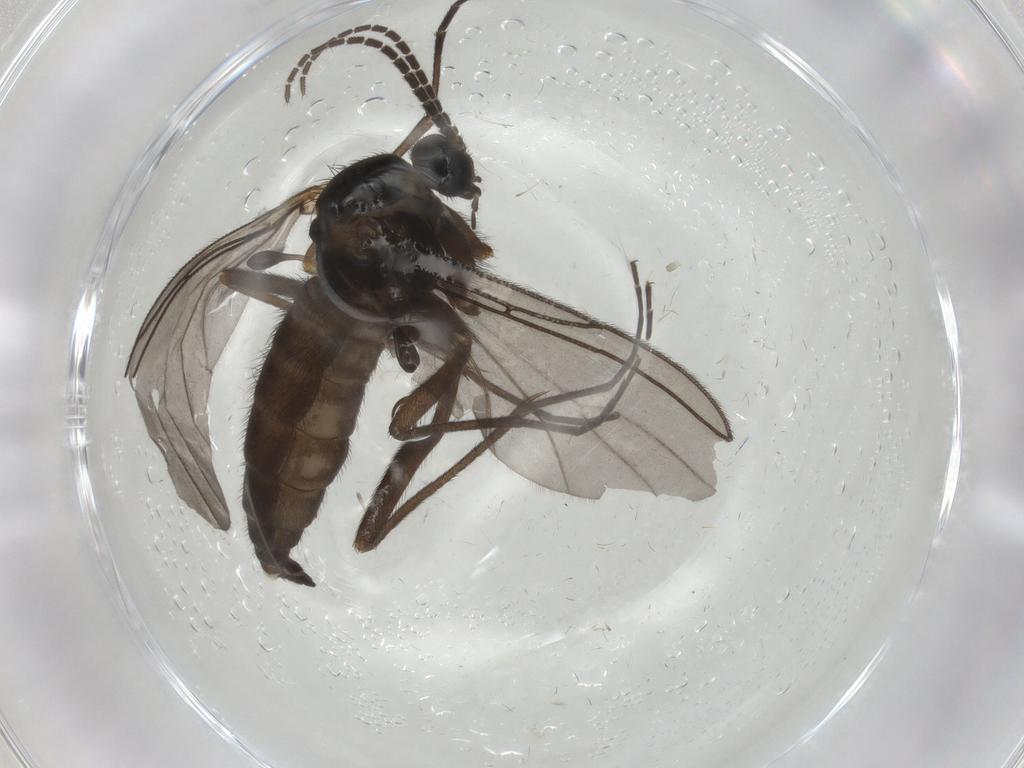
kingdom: Animalia
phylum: Arthropoda
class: Insecta
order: Diptera
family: Sciaridae
